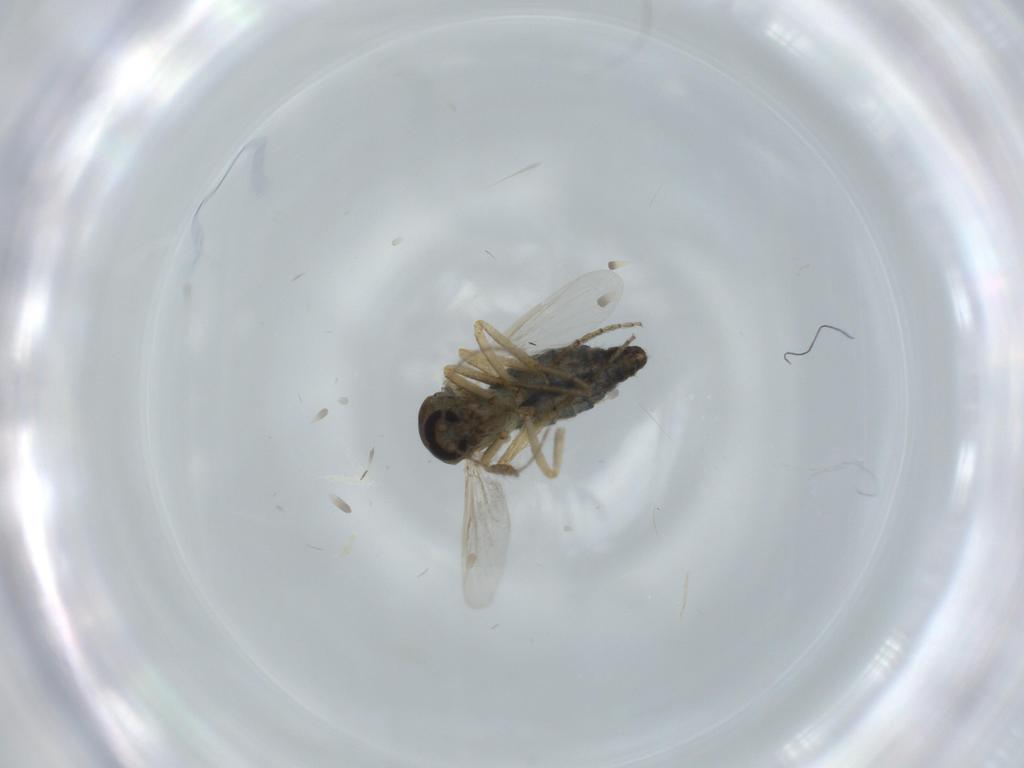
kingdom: Animalia
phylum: Arthropoda
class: Insecta
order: Diptera
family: Ceratopogonidae
